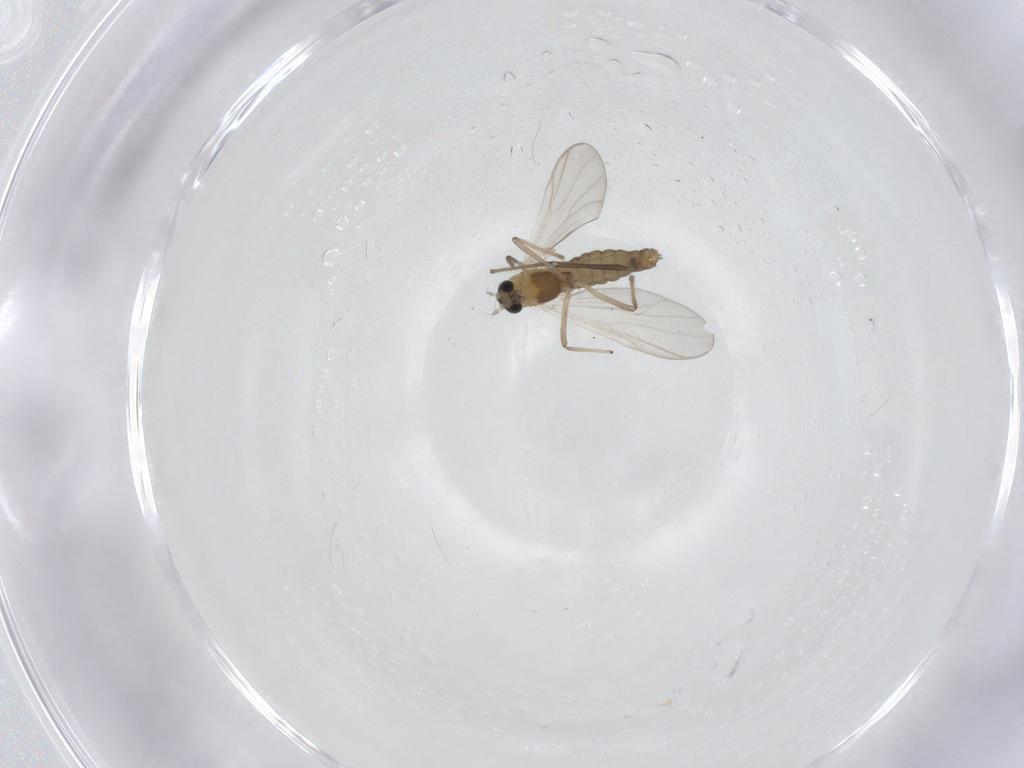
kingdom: Animalia
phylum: Arthropoda
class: Insecta
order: Diptera
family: Chironomidae
